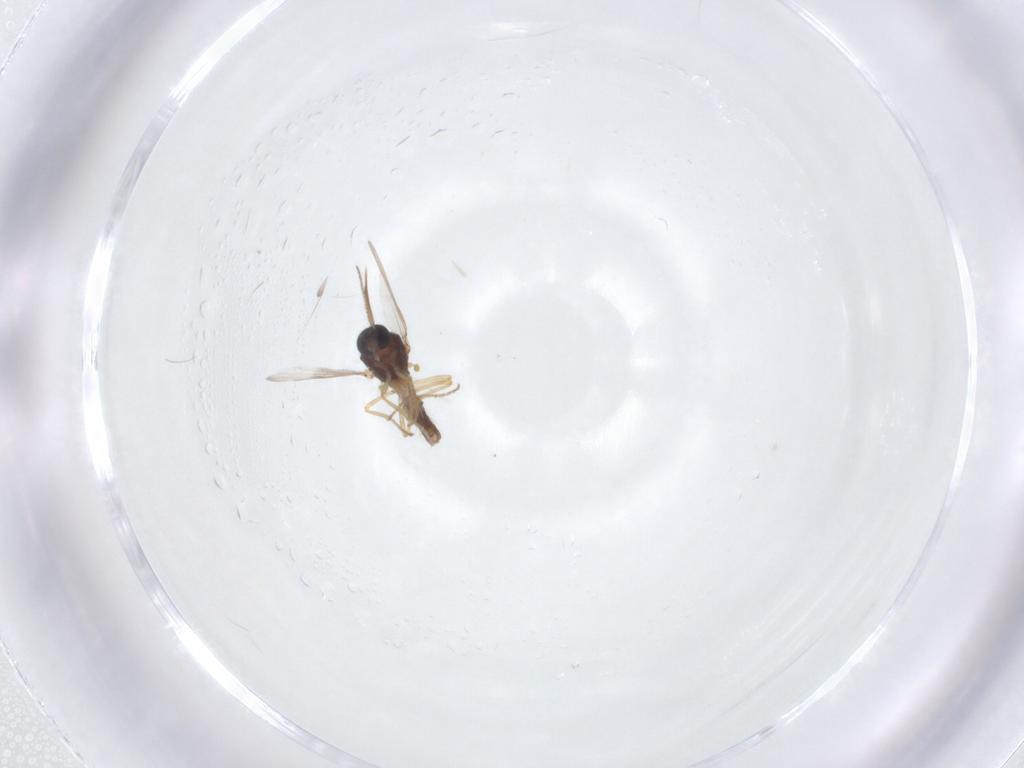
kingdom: Animalia
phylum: Arthropoda
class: Insecta
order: Diptera
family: Ceratopogonidae
